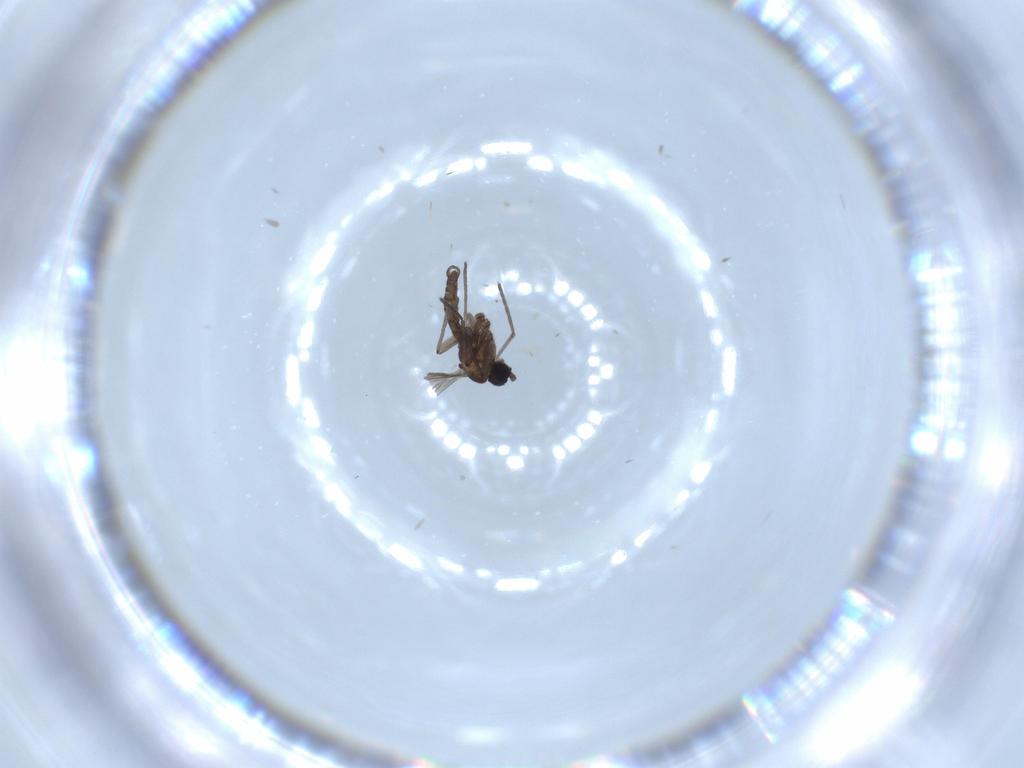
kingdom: Animalia
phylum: Arthropoda
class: Insecta
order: Diptera
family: Sciaridae
